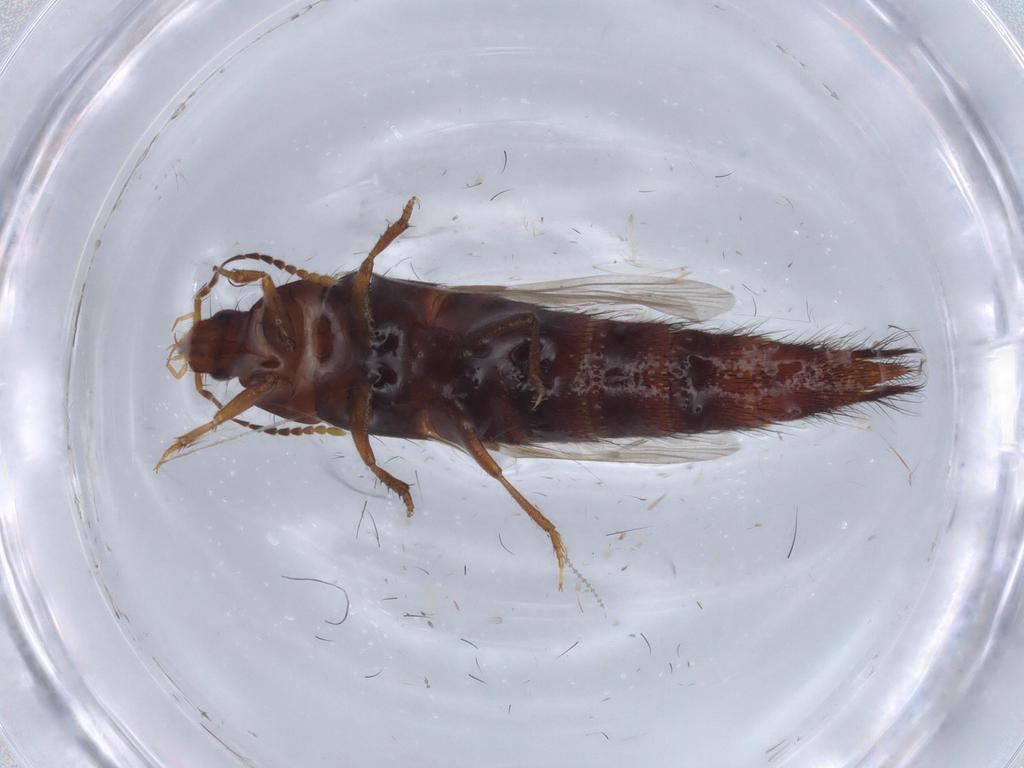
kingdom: Animalia
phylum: Arthropoda
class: Insecta
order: Coleoptera
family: Staphylinidae
